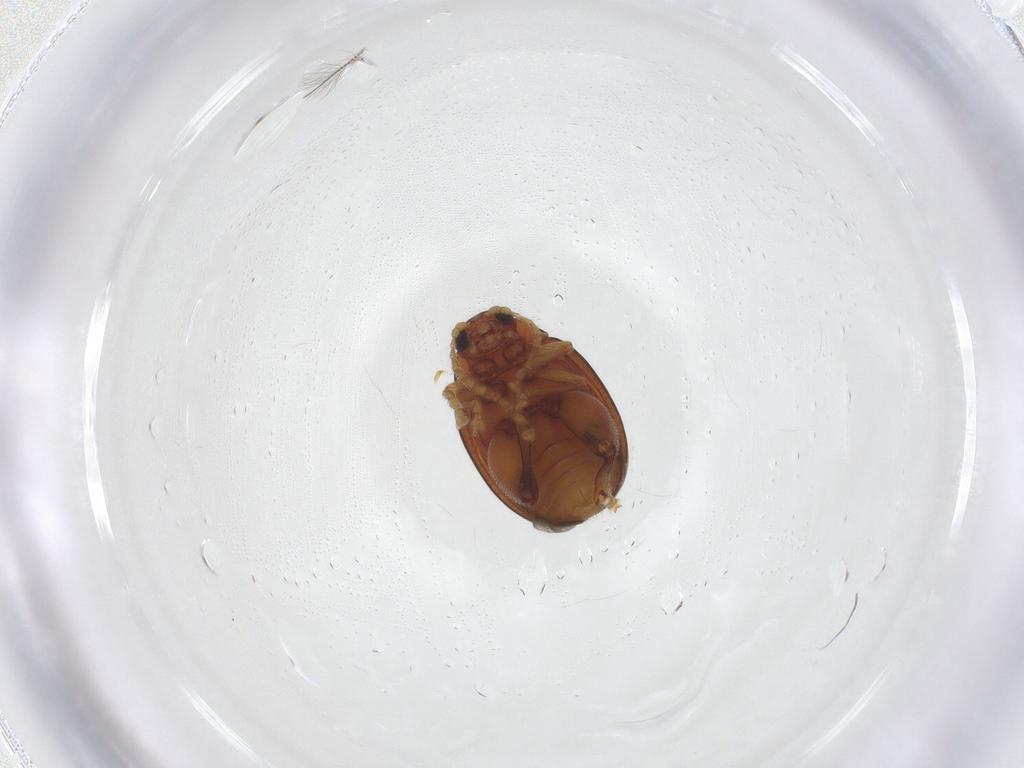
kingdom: Animalia
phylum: Arthropoda
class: Insecta
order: Coleoptera
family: Chrysomelidae
